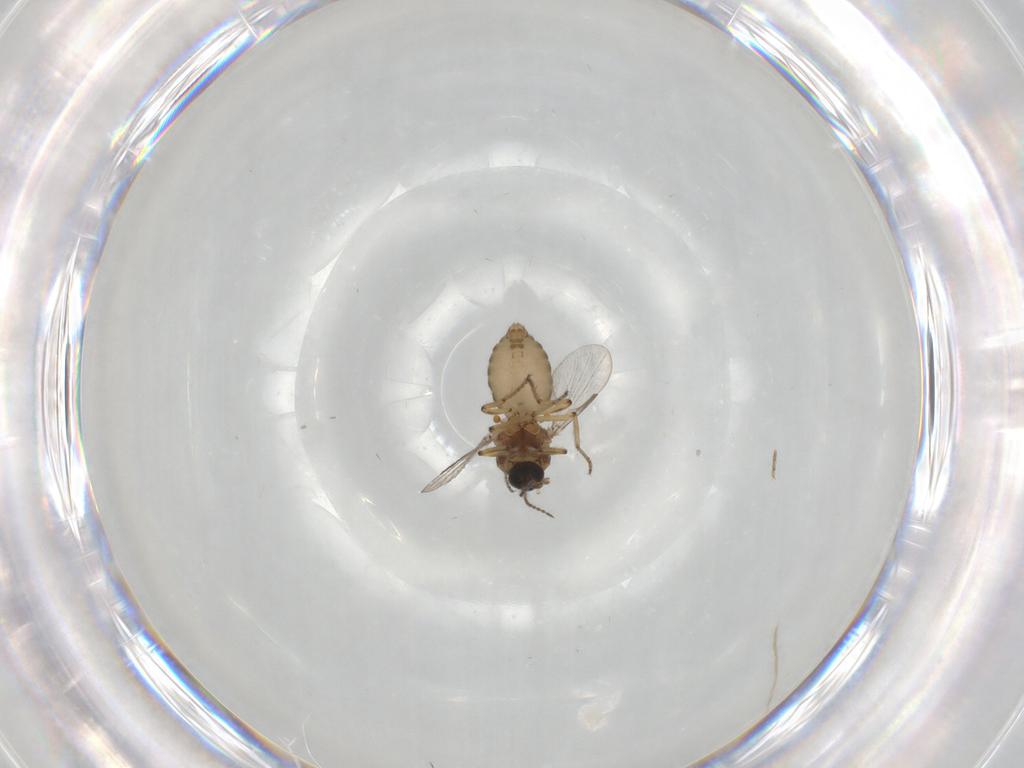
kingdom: Animalia
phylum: Arthropoda
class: Insecta
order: Diptera
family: Ceratopogonidae
